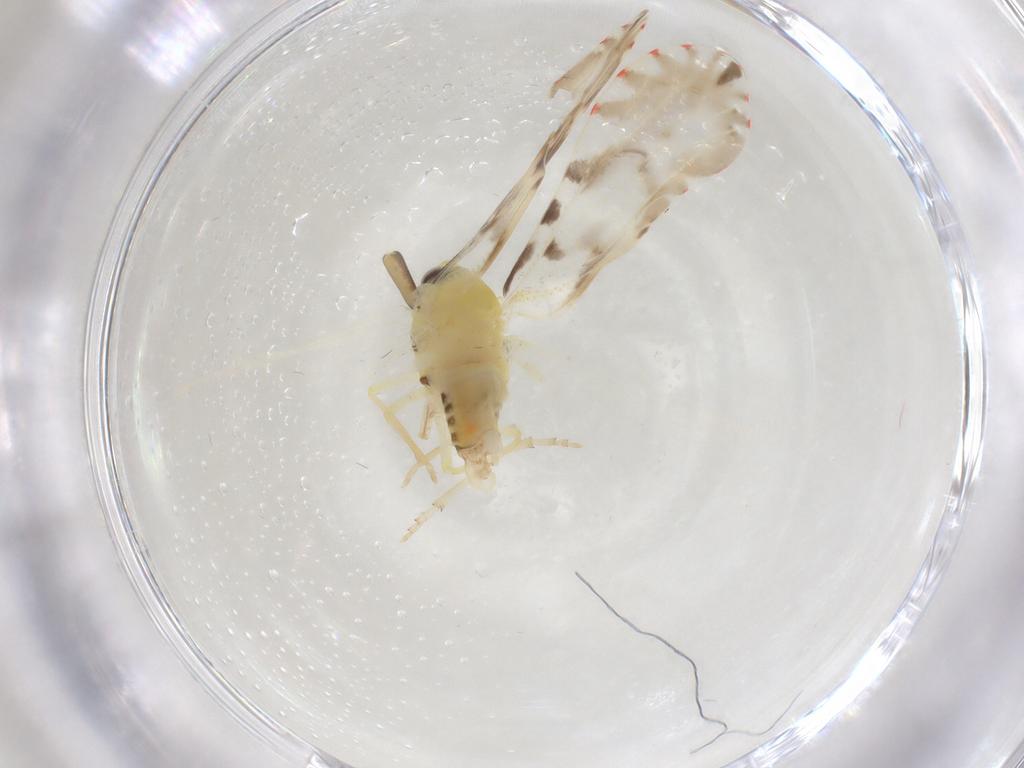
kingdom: Animalia
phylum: Arthropoda
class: Insecta
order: Hemiptera
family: Derbidae
